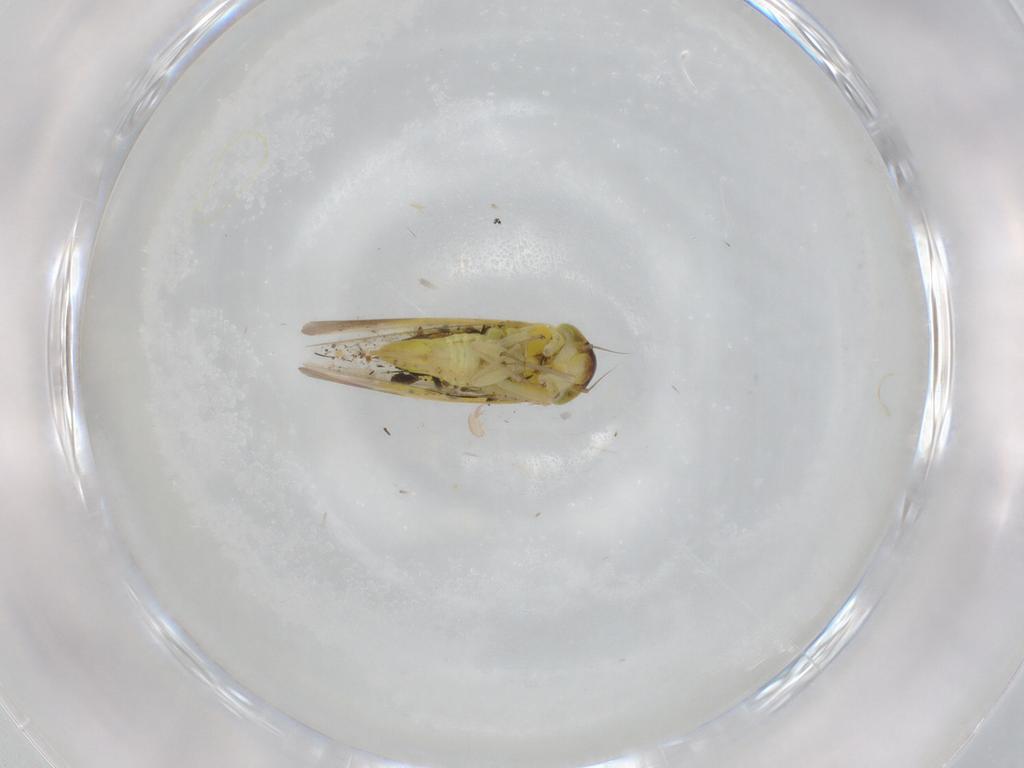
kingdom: Animalia
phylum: Arthropoda
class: Insecta
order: Hemiptera
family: Cicadellidae
